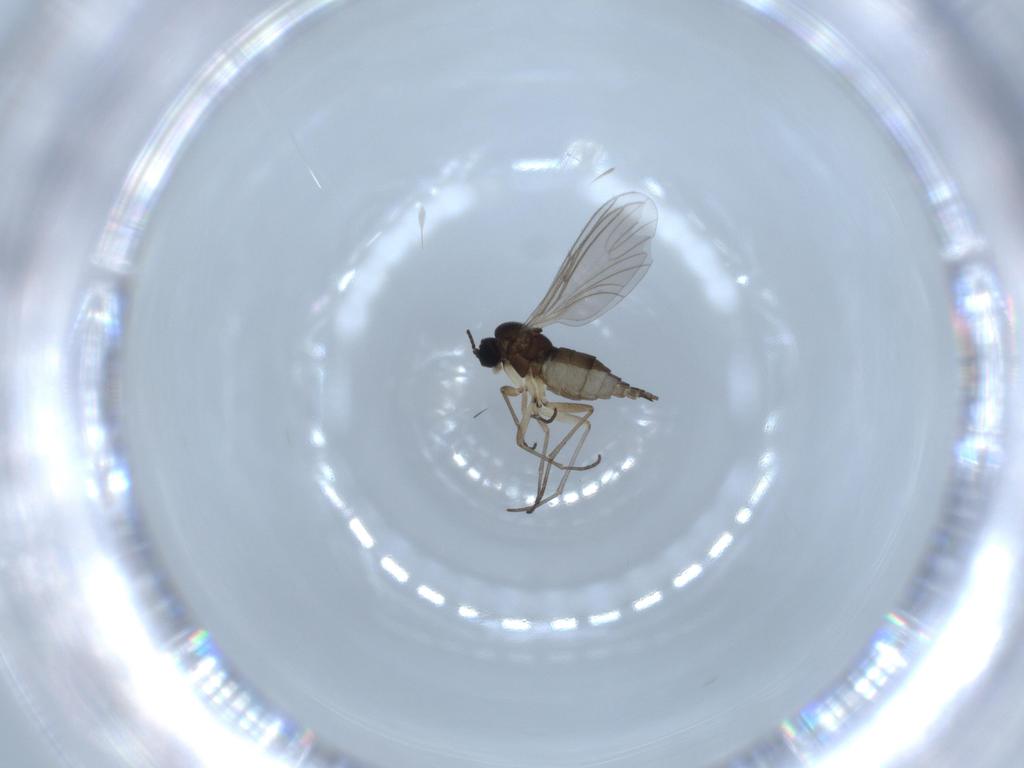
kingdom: Animalia
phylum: Arthropoda
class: Insecta
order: Diptera
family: Sciaridae
